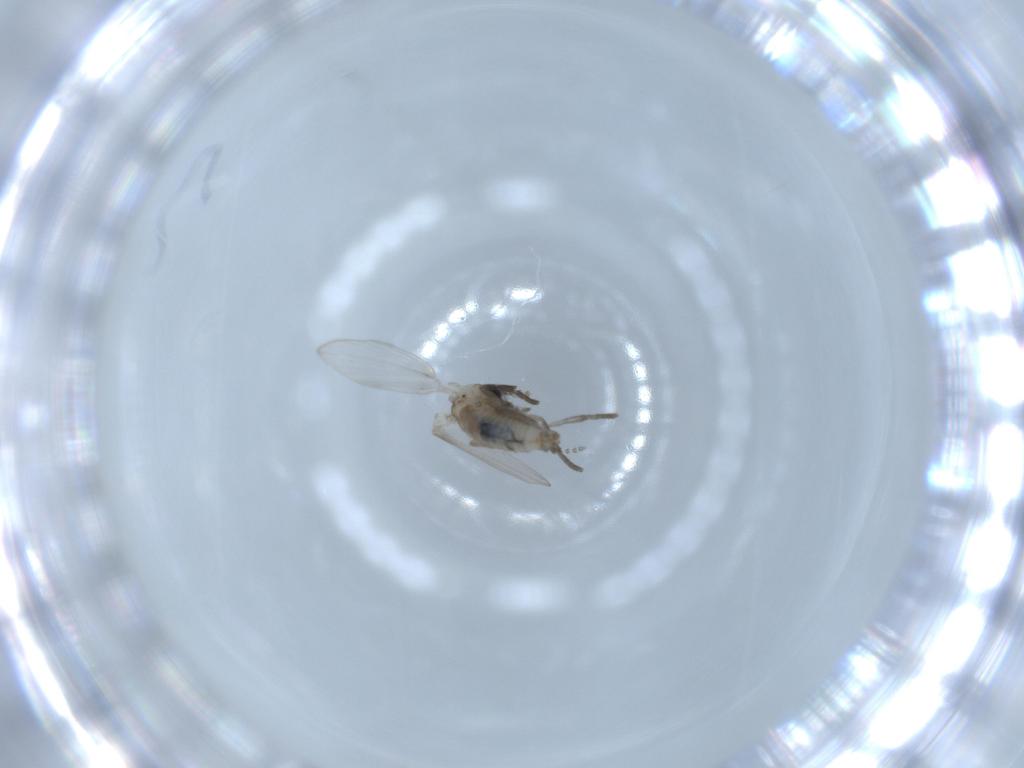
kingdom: Animalia
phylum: Arthropoda
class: Insecta
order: Diptera
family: Psychodidae
